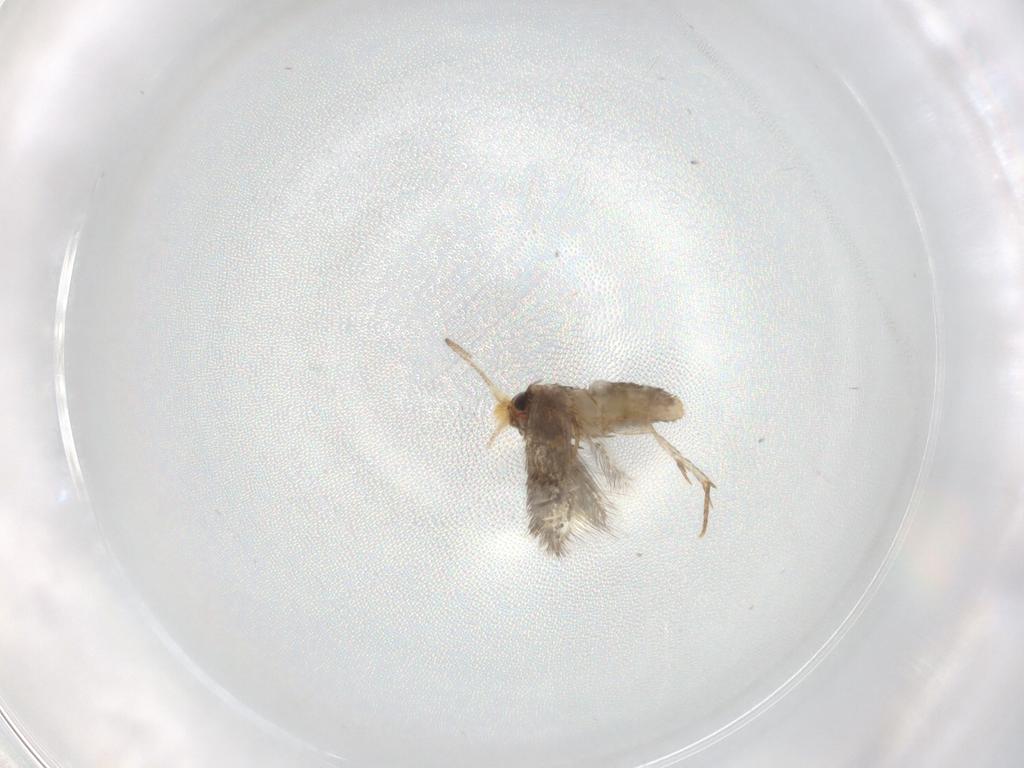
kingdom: Animalia
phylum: Arthropoda
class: Insecta
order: Lepidoptera
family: Nepticulidae
